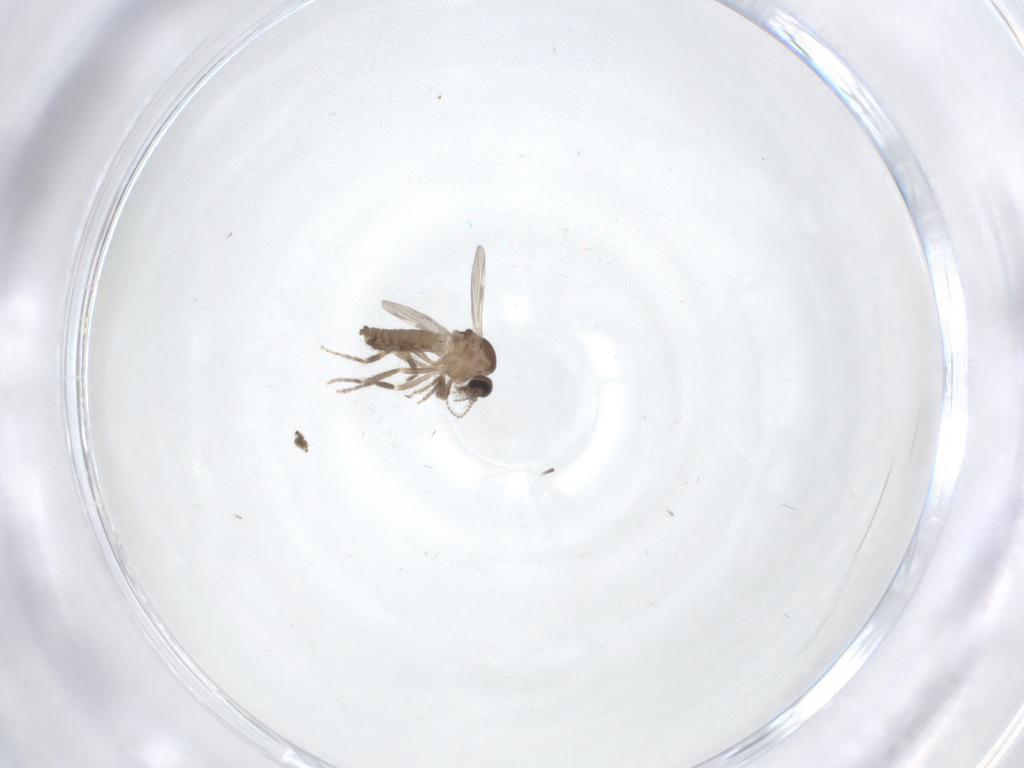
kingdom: Animalia
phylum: Arthropoda
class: Insecta
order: Diptera
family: Ceratopogonidae
